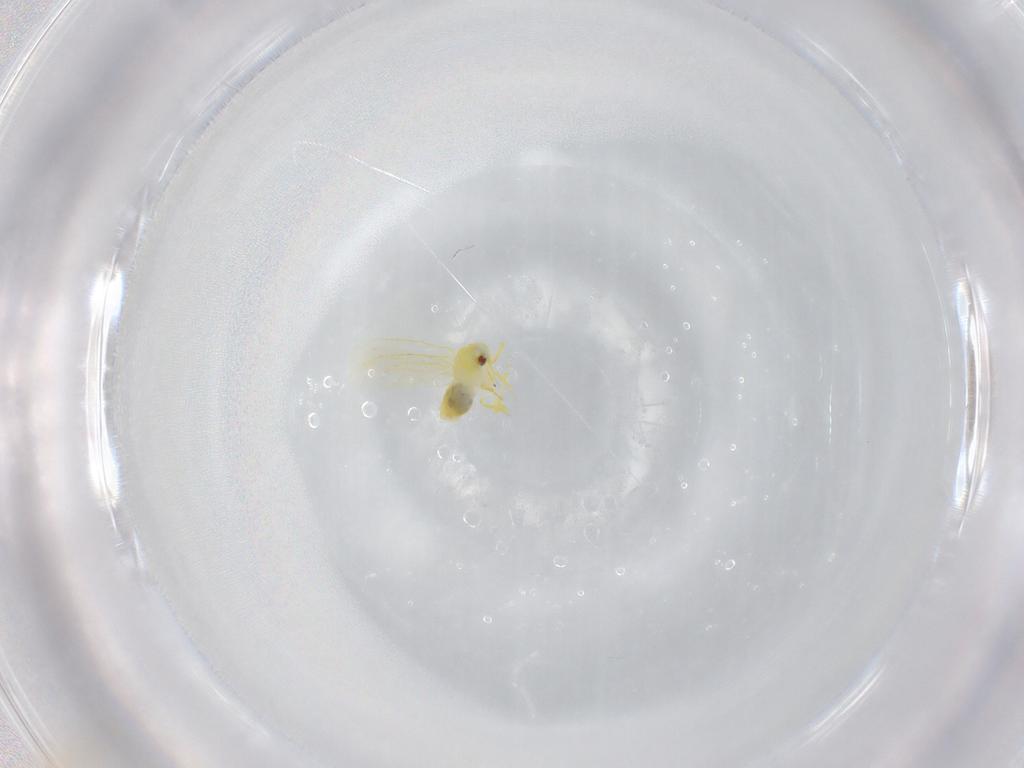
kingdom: Animalia
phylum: Arthropoda
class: Insecta
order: Hemiptera
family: Aleyrodidae
